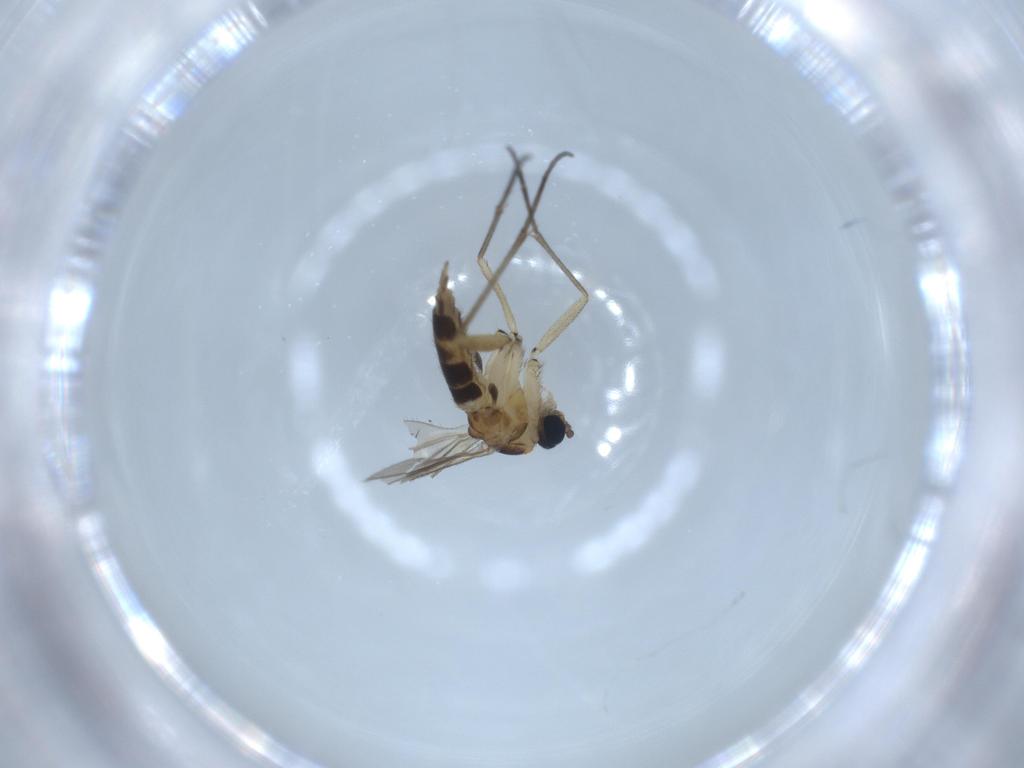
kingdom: Animalia
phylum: Arthropoda
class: Insecta
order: Diptera
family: Sciaridae
